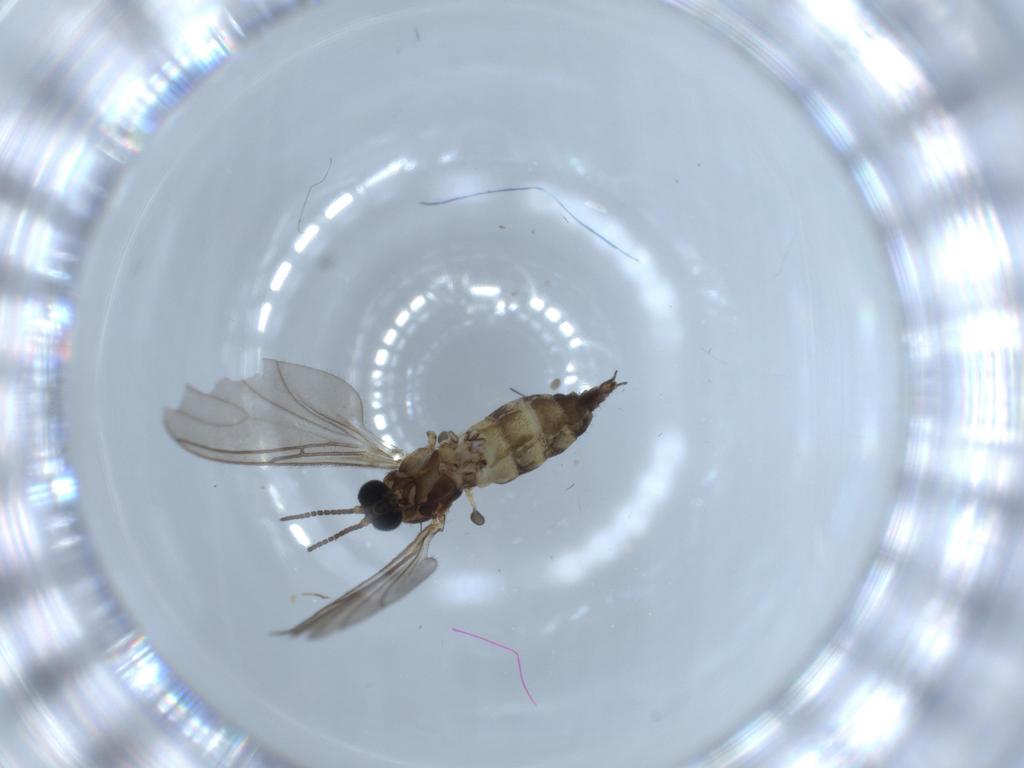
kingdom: Animalia
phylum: Arthropoda
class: Insecta
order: Diptera
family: Sciaridae
